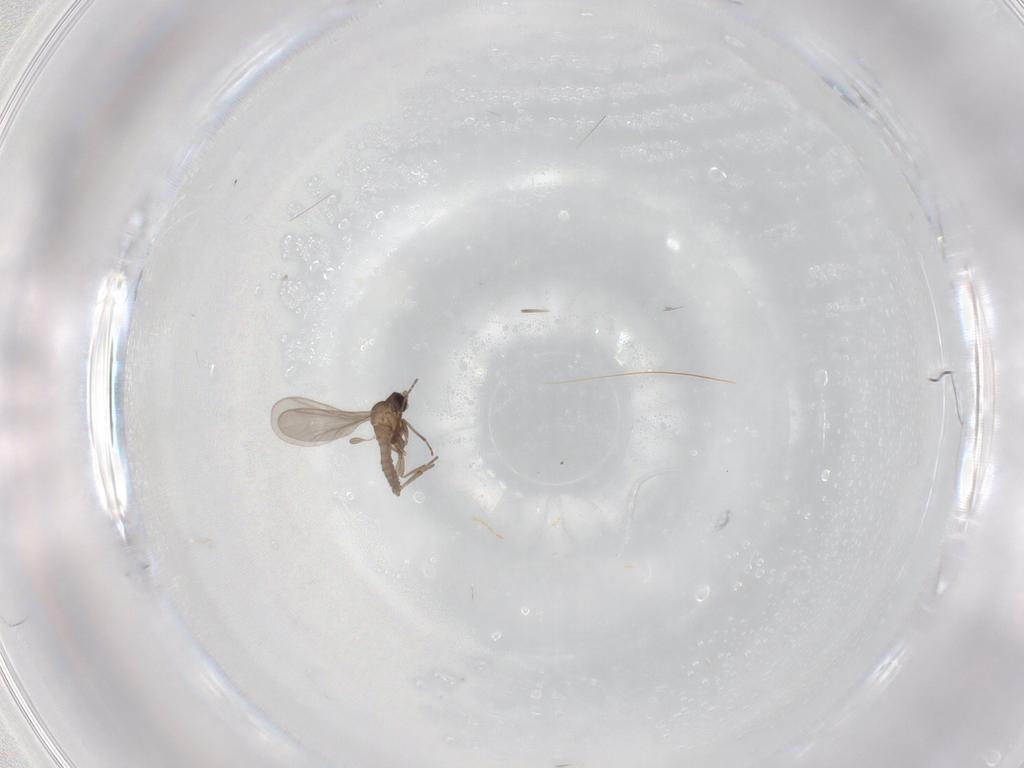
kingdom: Animalia
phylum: Arthropoda
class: Insecta
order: Diptera
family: Sciaridae
